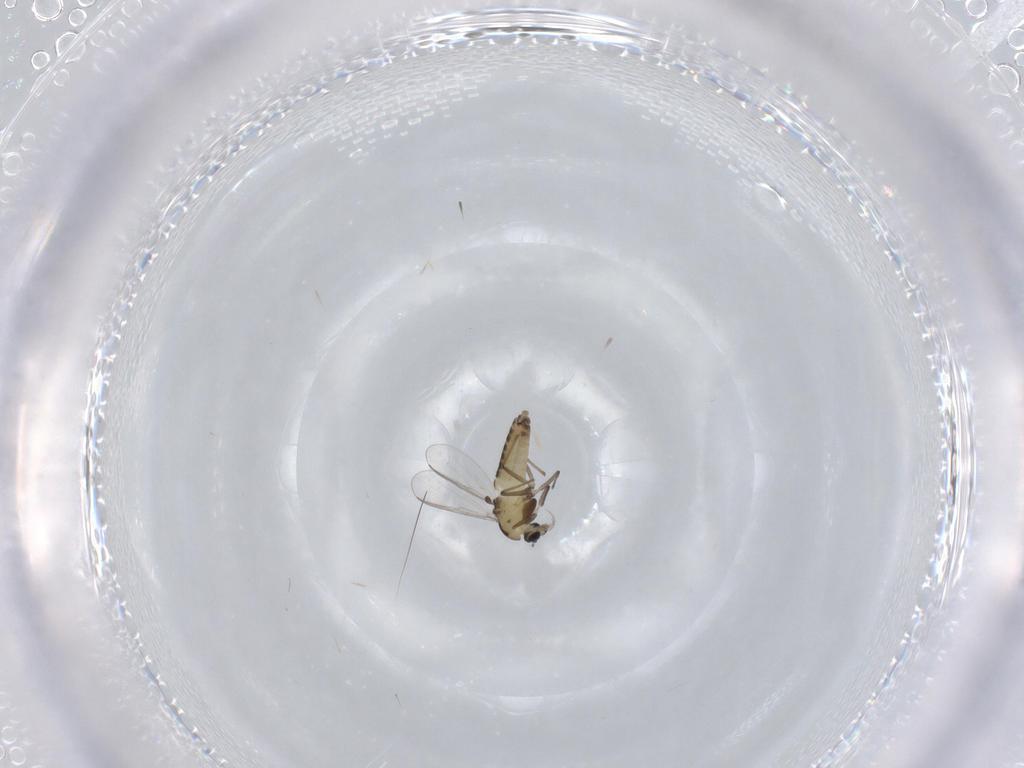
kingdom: Animalia
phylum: Arthropoda
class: Insecta
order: Diptera
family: Chironomidae
